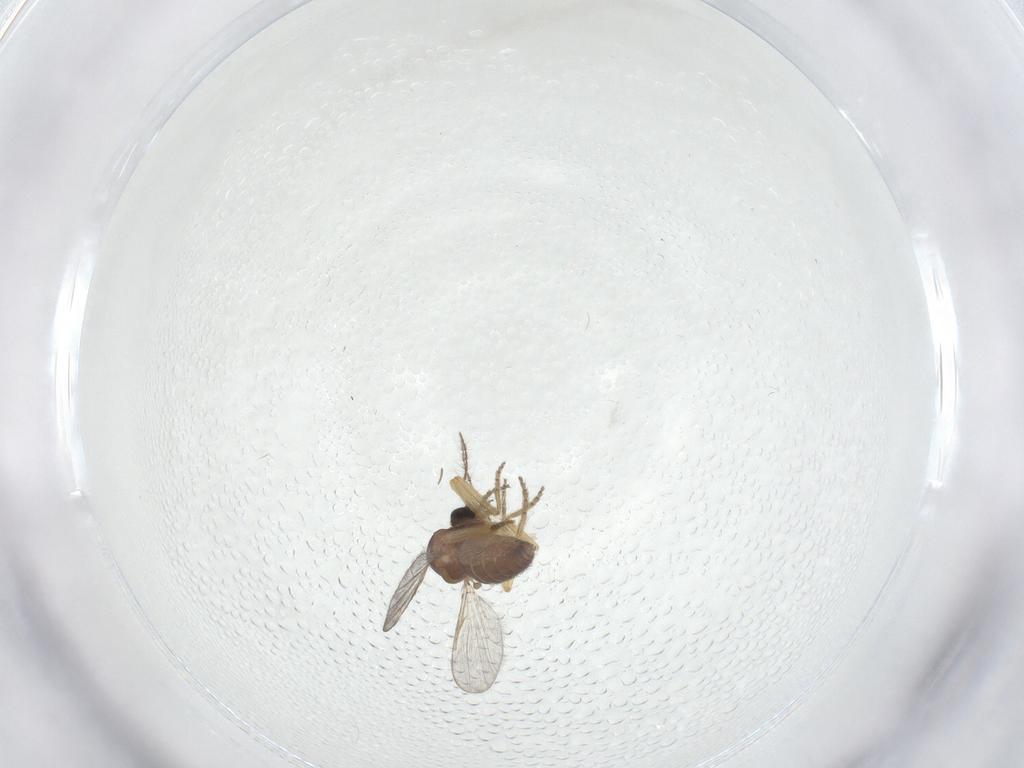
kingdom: Animalia
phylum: Arthropoda
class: Insecta
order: Diptera
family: Ceratopogonidae
